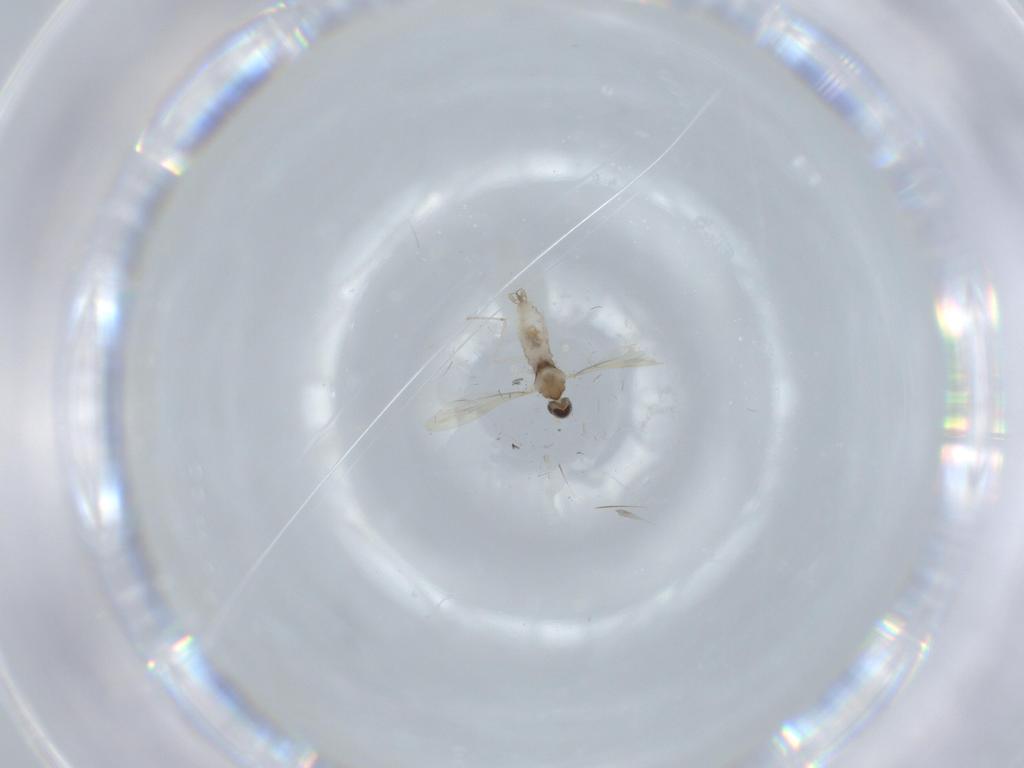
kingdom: Animalia
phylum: Arthropoda
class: Insecta
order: Diptera
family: Cecidomyiidae
